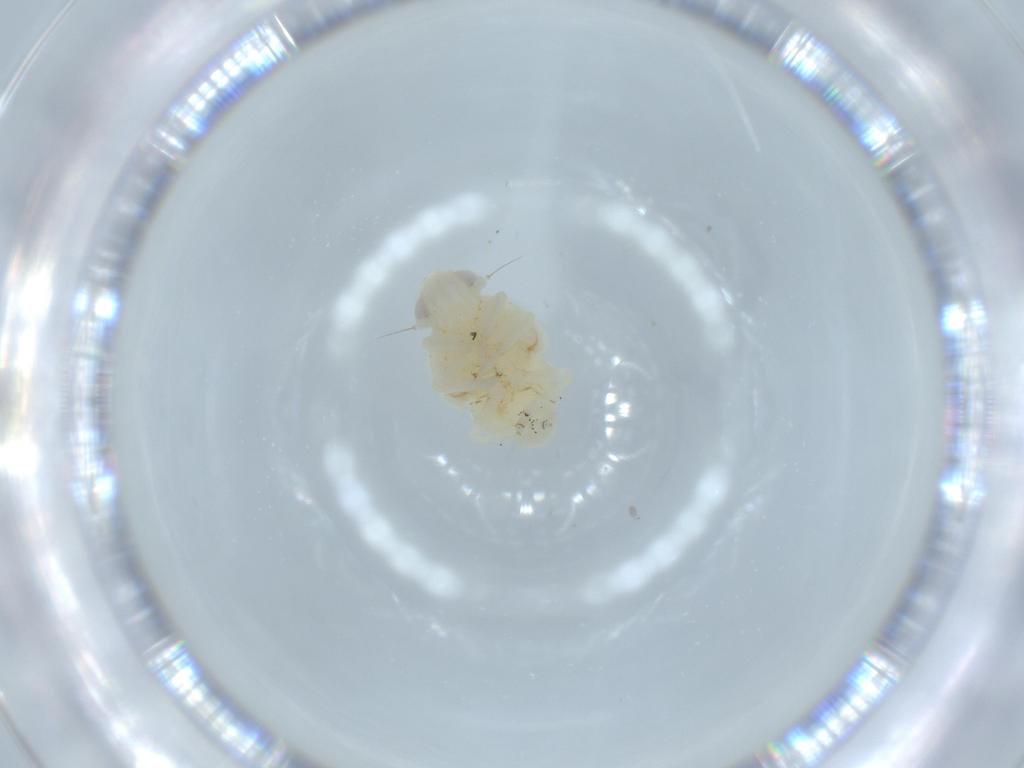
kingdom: Animalia
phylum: Arthropoda
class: Insecta
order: Hemiptera
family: Nogodinidae
